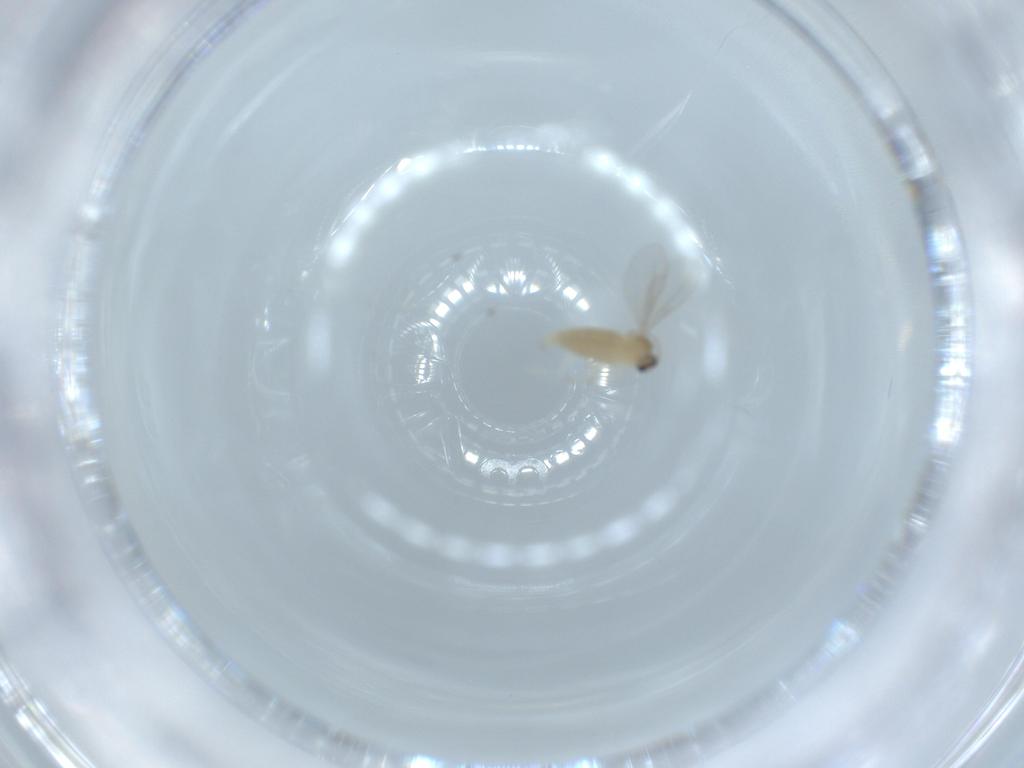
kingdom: Animalia
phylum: Arthropoda
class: Insecta
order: Diptera
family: Cecidomyiidae
